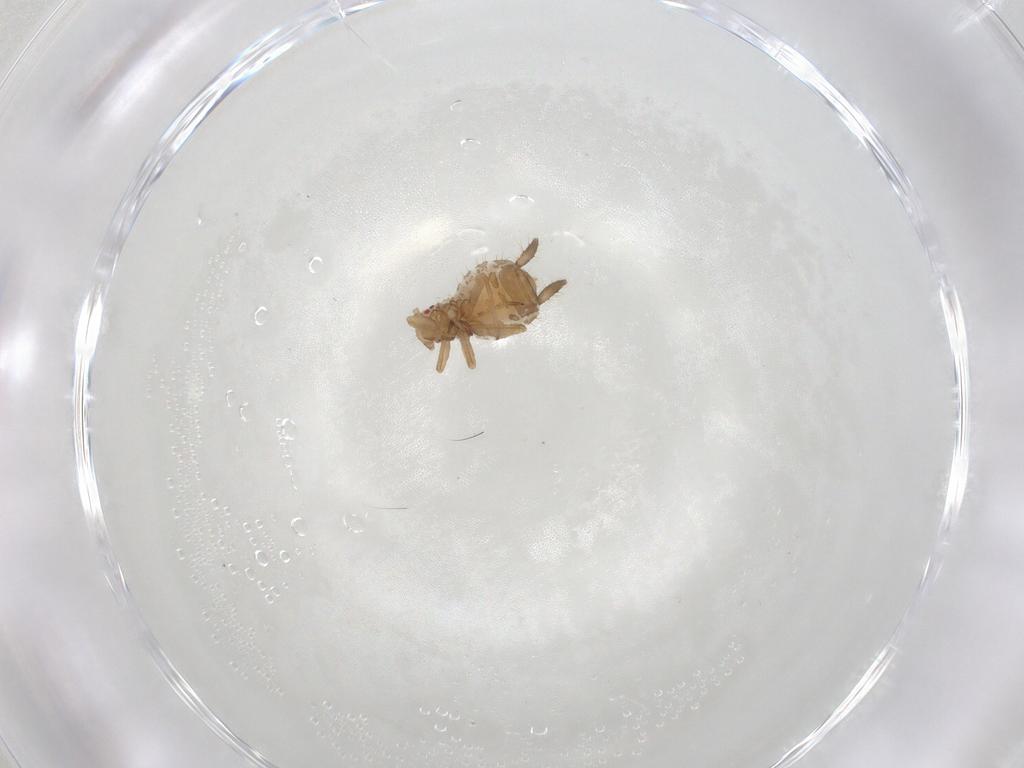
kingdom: Animalia
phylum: Arthropoda
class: Insecta
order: Hemiptera
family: Aphididae
